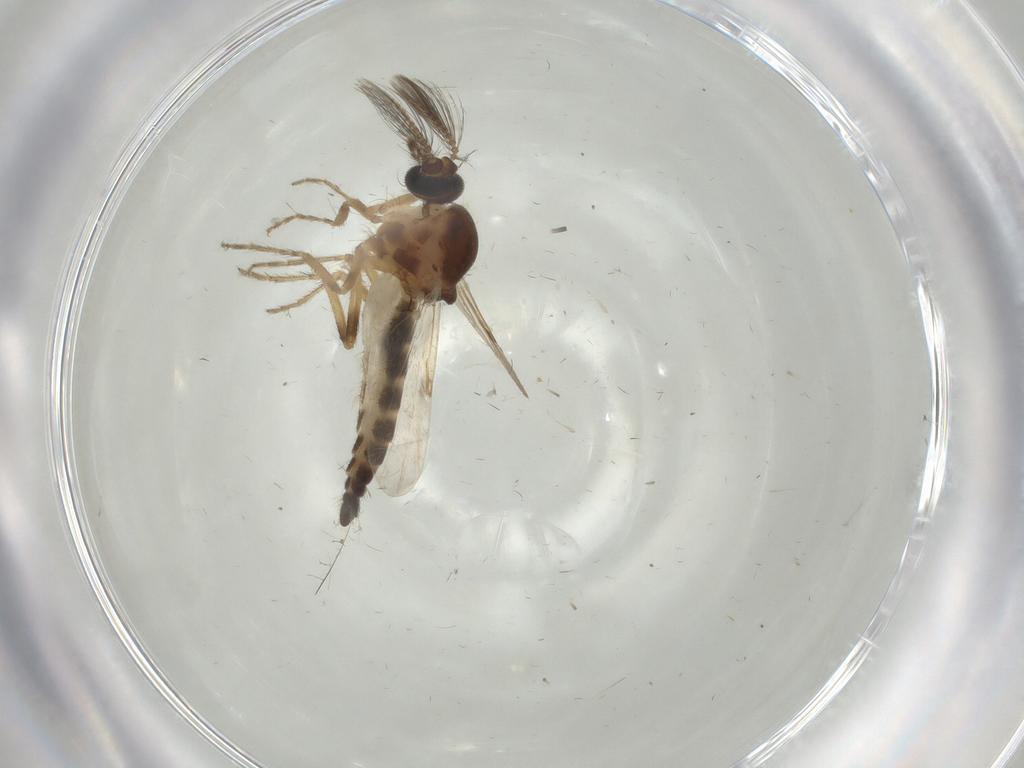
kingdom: Animalia
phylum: Arthropoda
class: Insecta
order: Diptera
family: Ceratopogonidae
